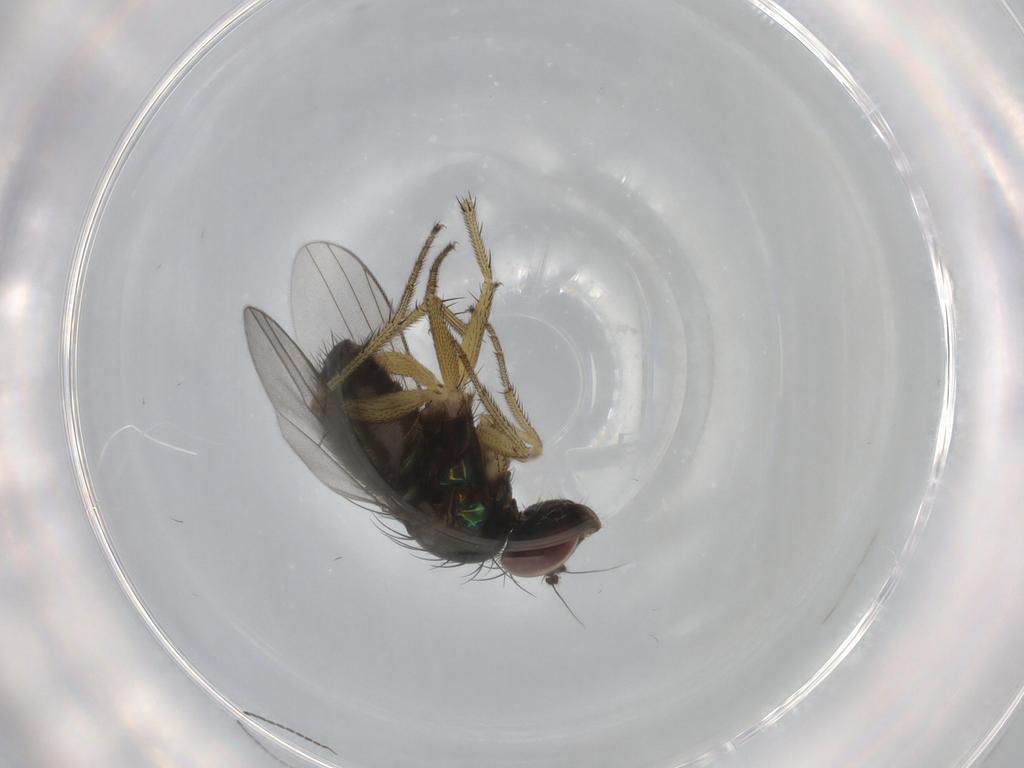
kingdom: Animalia
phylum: Arthropoda
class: Insecta
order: Diptera
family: Dolichopodidae
